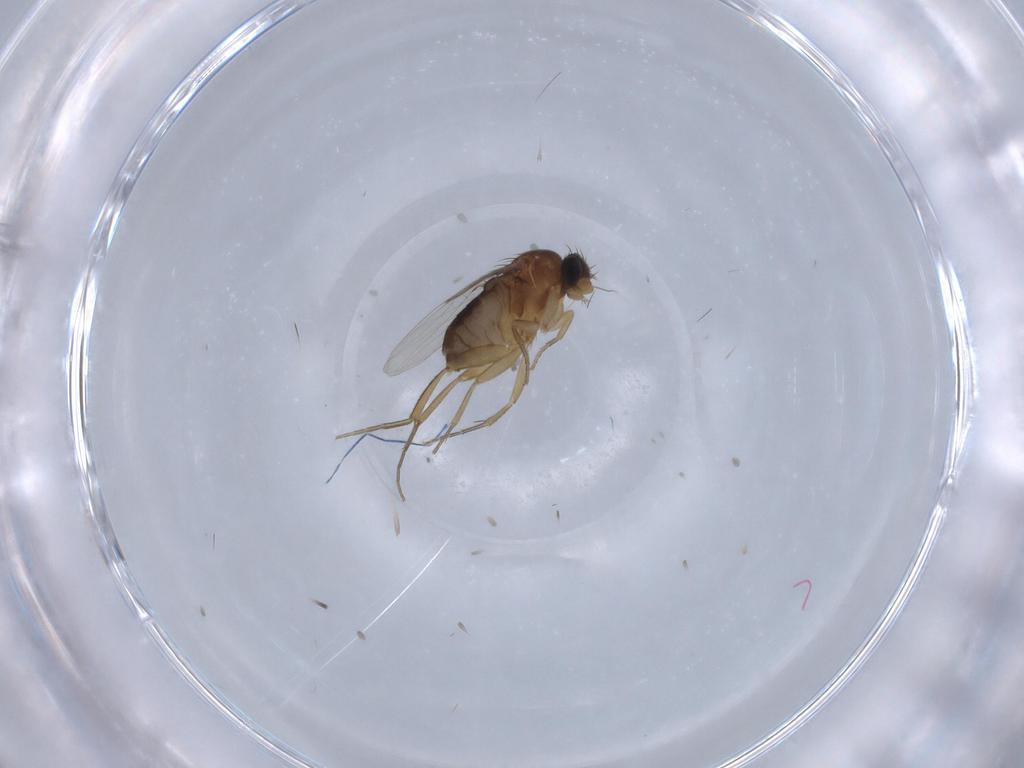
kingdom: Animalia
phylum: Arthropoda
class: Insecta
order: Diptera
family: Phoridae
